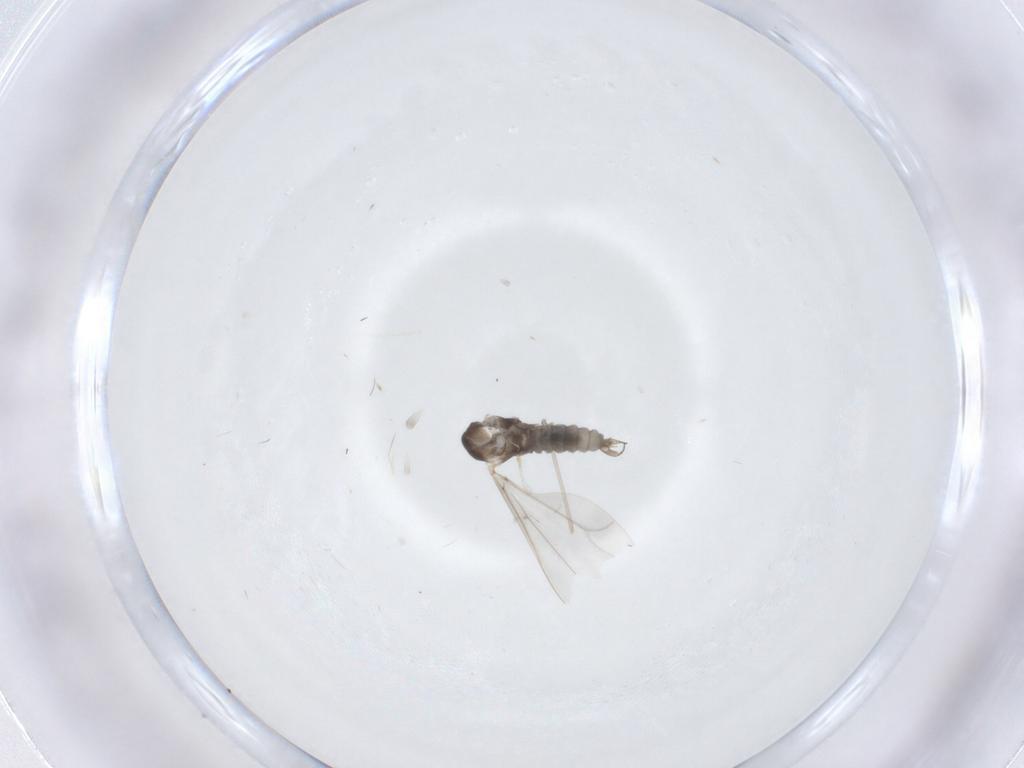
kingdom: Animalia
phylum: Arthropoda
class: Insecta
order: Diptera
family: Cecidomyiidae
